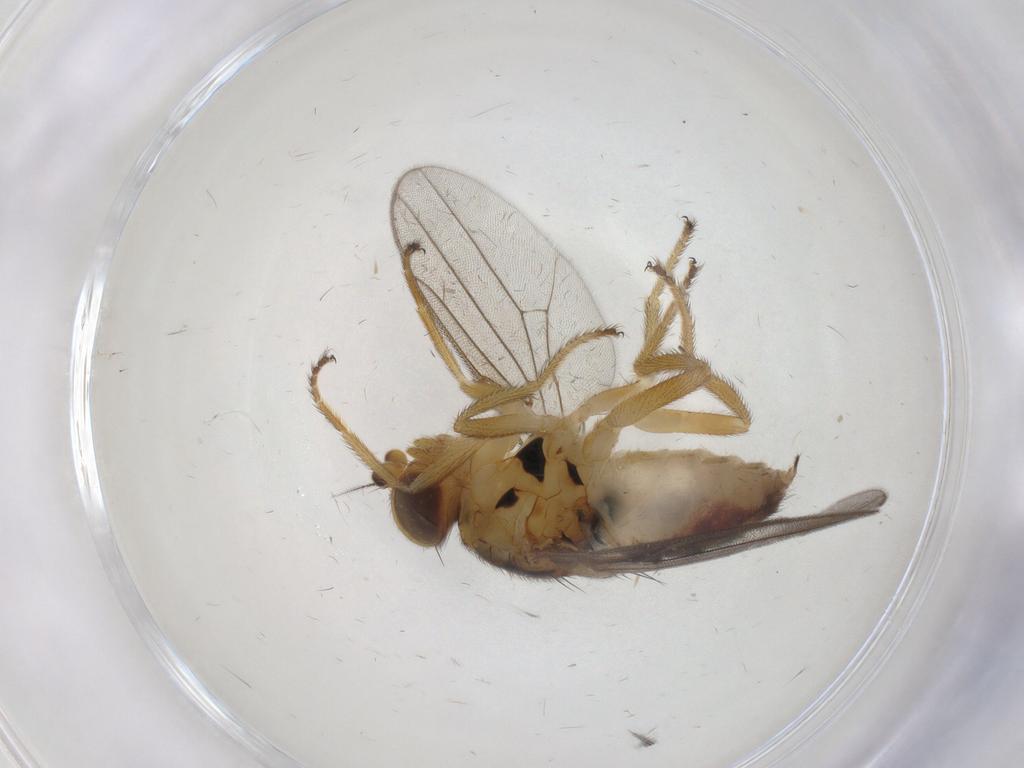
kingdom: Animalia
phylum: Arthropoda
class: Insecta
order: Diptera
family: Chloropidae
